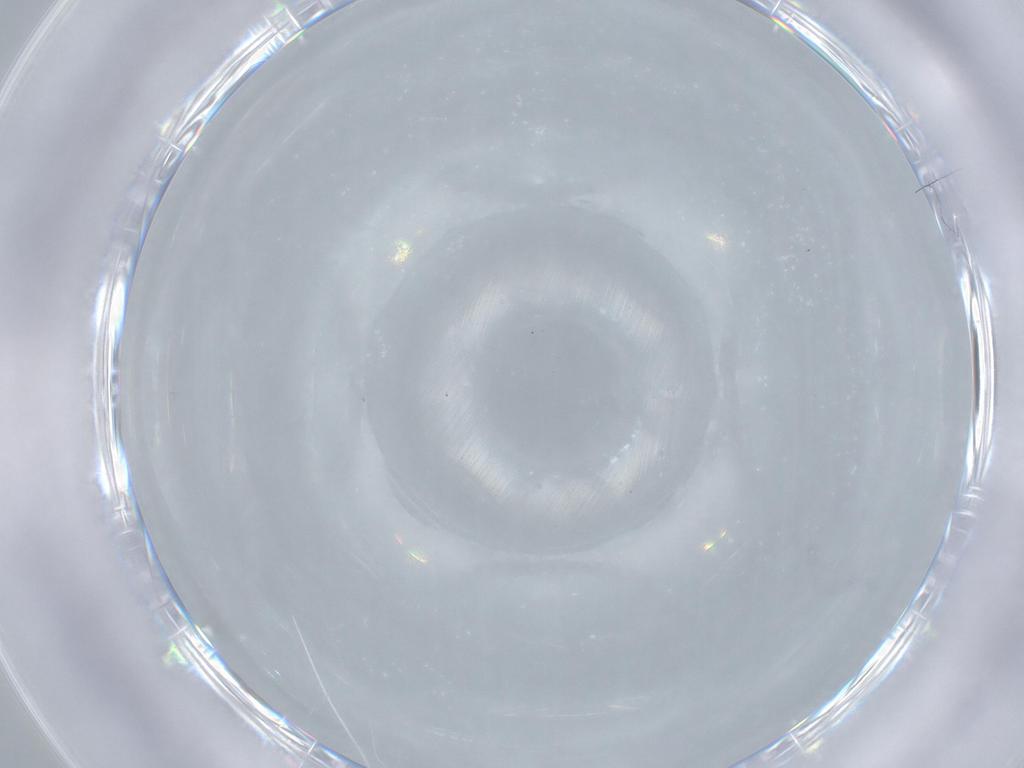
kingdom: Animalia
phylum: Arthropoda
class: Insecta
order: Diptera
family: Cecidomyiidae
